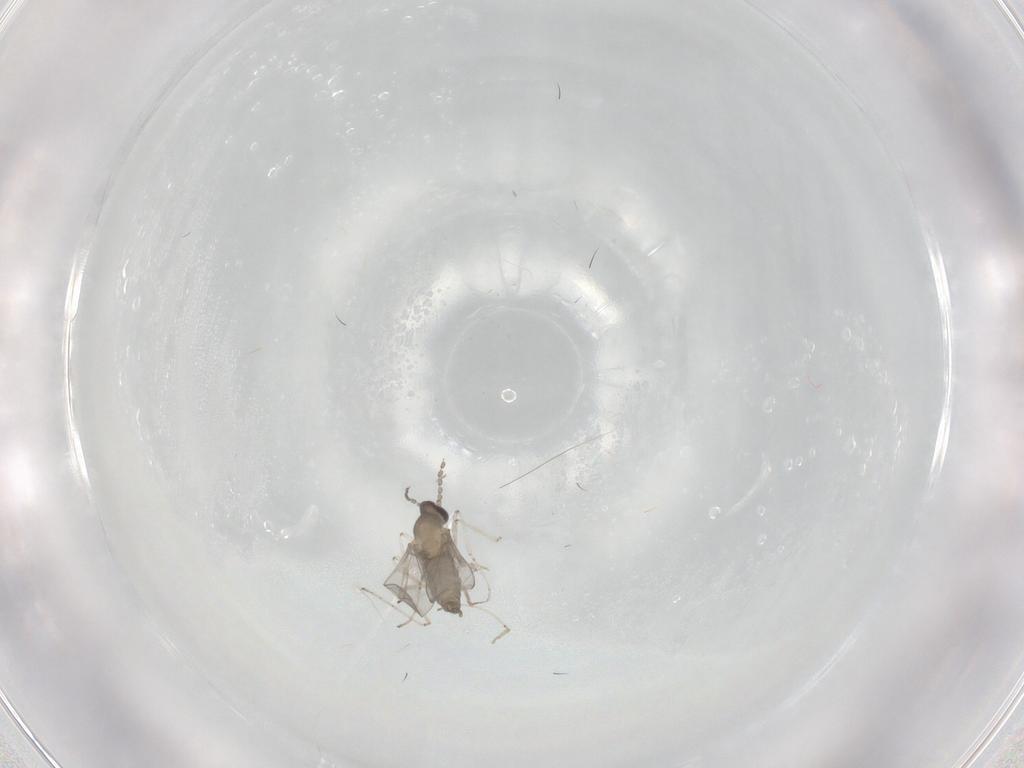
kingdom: Animalia
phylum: Arthropoda
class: Insecta
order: Diptera
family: Cecidomyiidae
